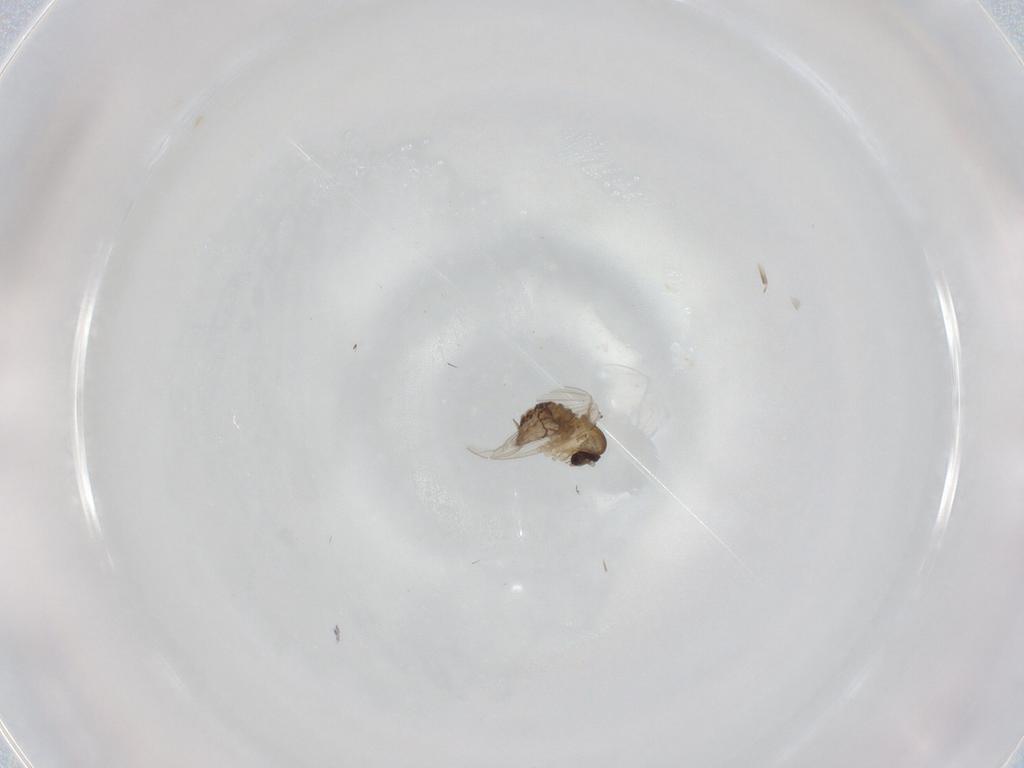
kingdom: Animalia
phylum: Arthropoda
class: Insecta
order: Diptera
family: Psychodidae
